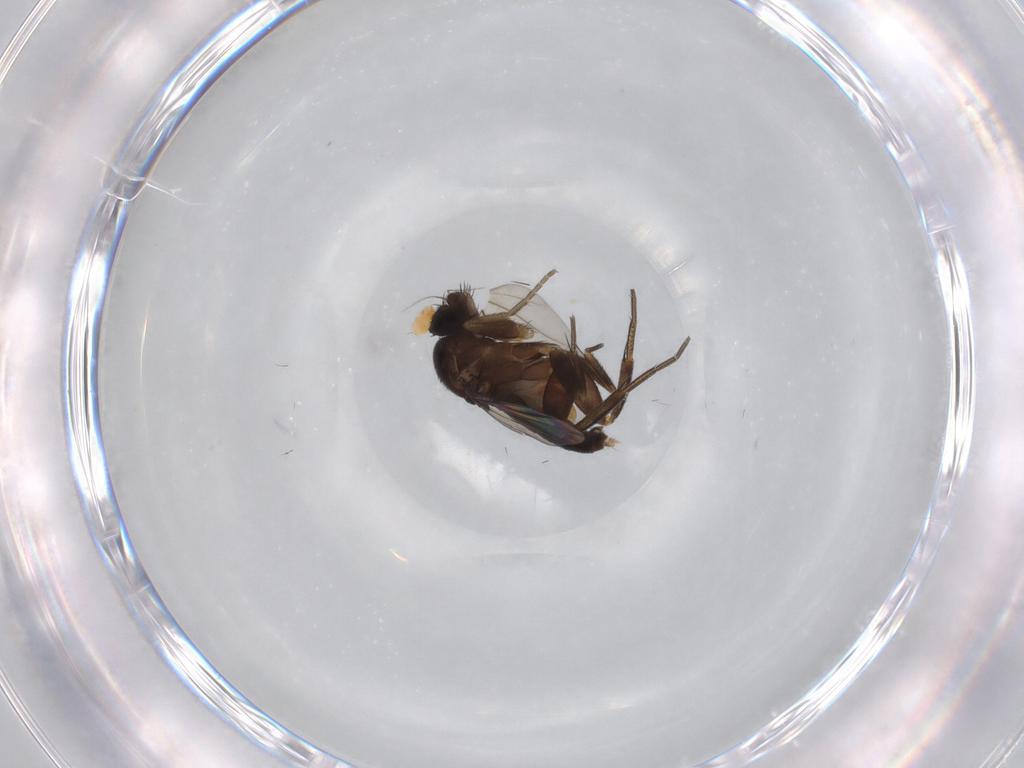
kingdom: Animalia
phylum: Arthropoda
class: Insecta
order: Diptera
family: Phoridae
